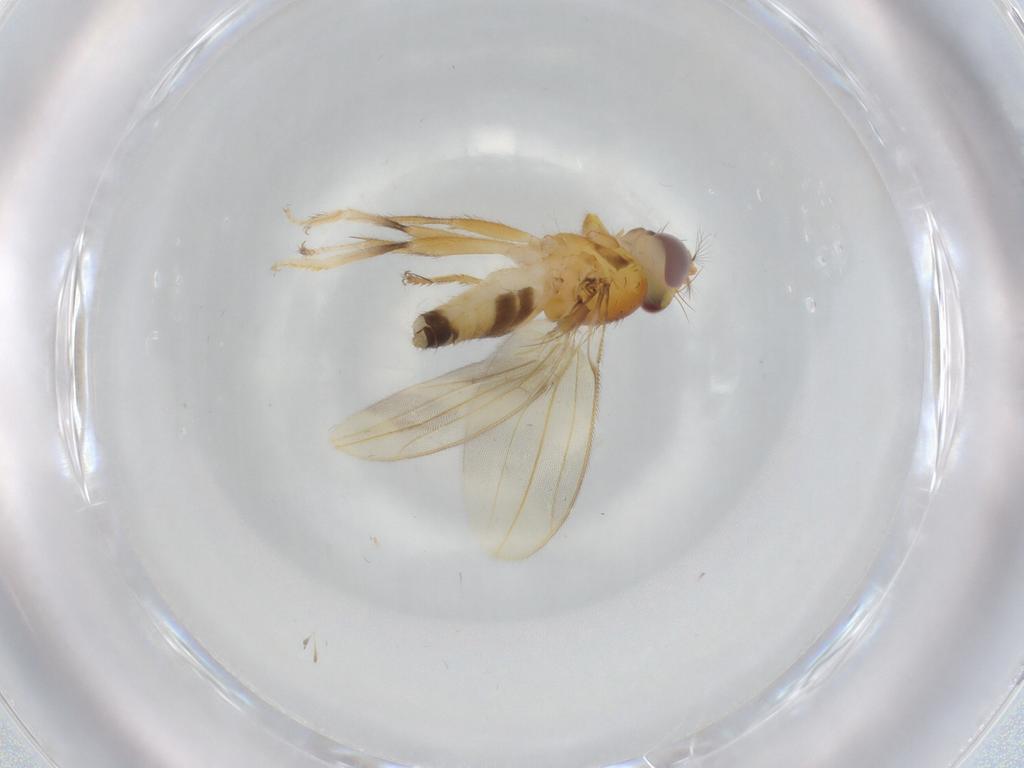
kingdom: Animalia
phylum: Arthropoda
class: Insecta
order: Diptera
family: Periscelididae
